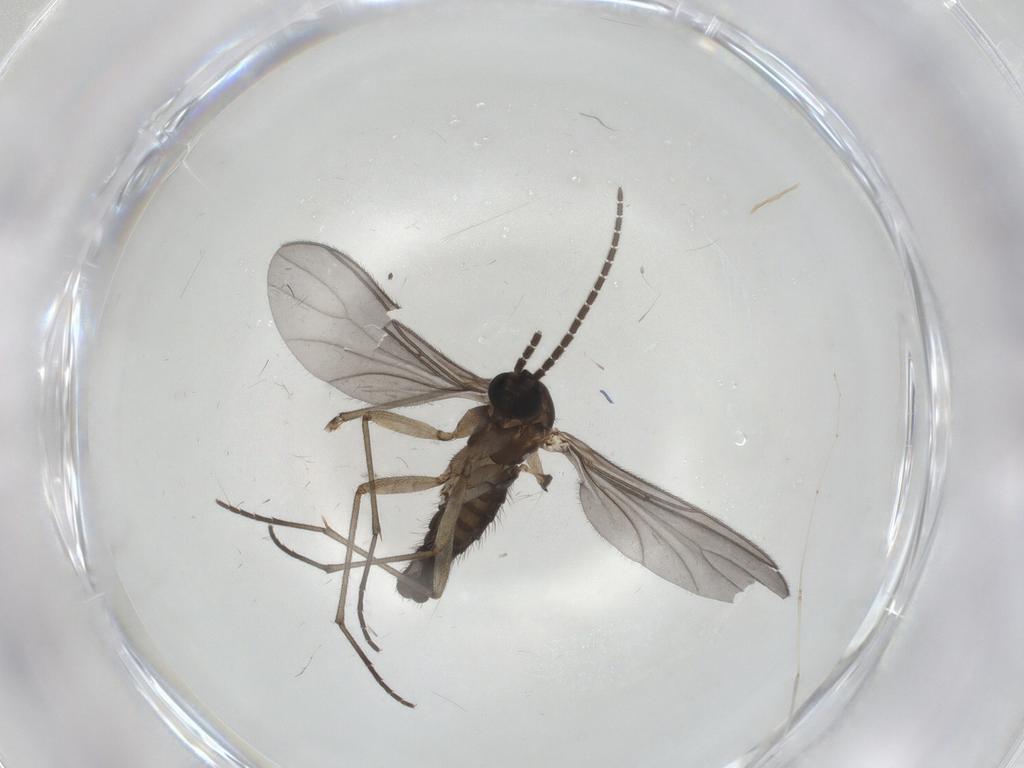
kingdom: Animalia
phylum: Arthropoda
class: Insecta
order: Diptera
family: Sciaridae
